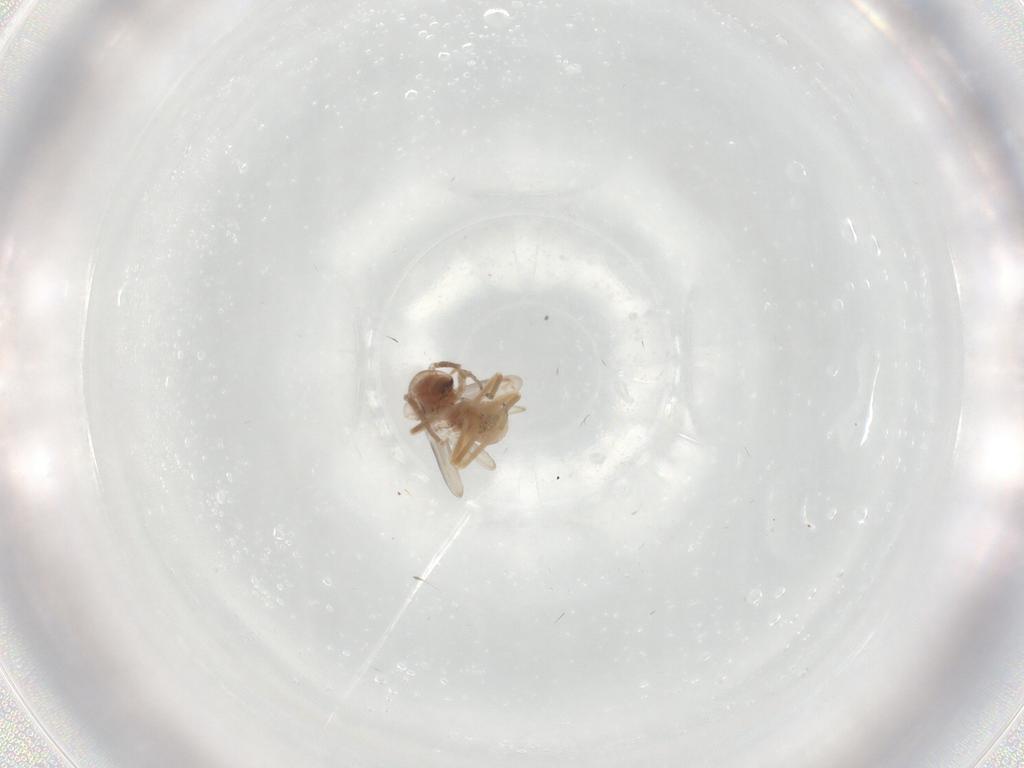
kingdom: Animalia
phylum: Arthropoda
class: Insecta
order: Psocodea
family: Peripsocidae
